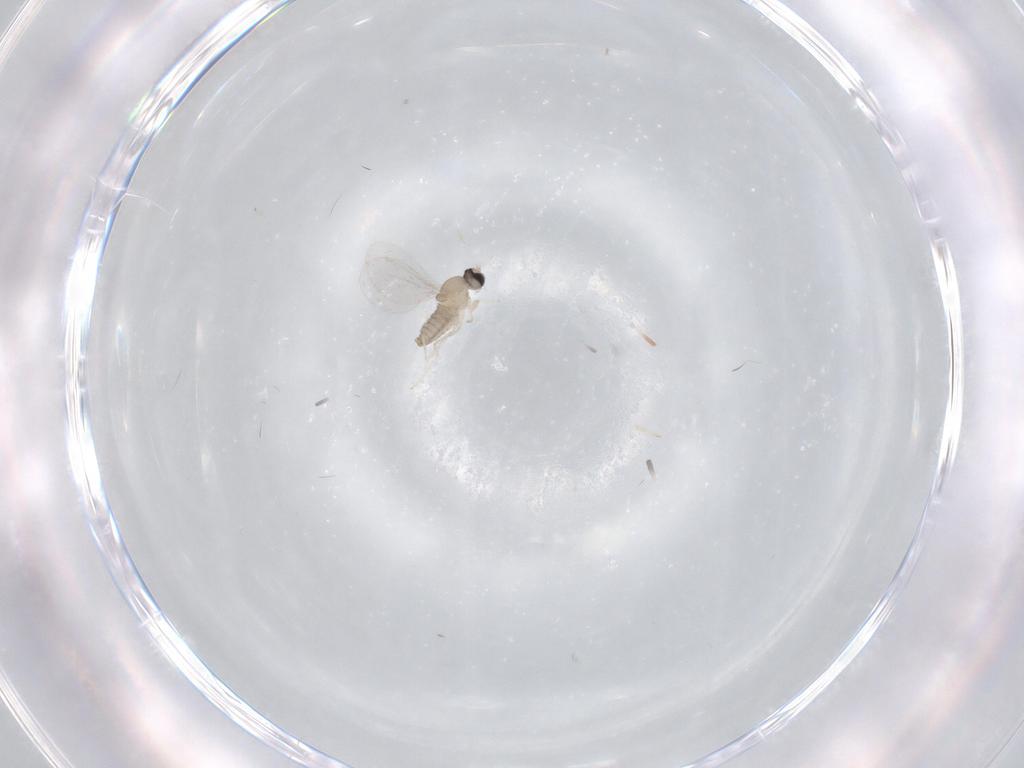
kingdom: Animalia
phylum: Arthropoda
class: Insecta
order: Diptera
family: Cecidomyiidae
